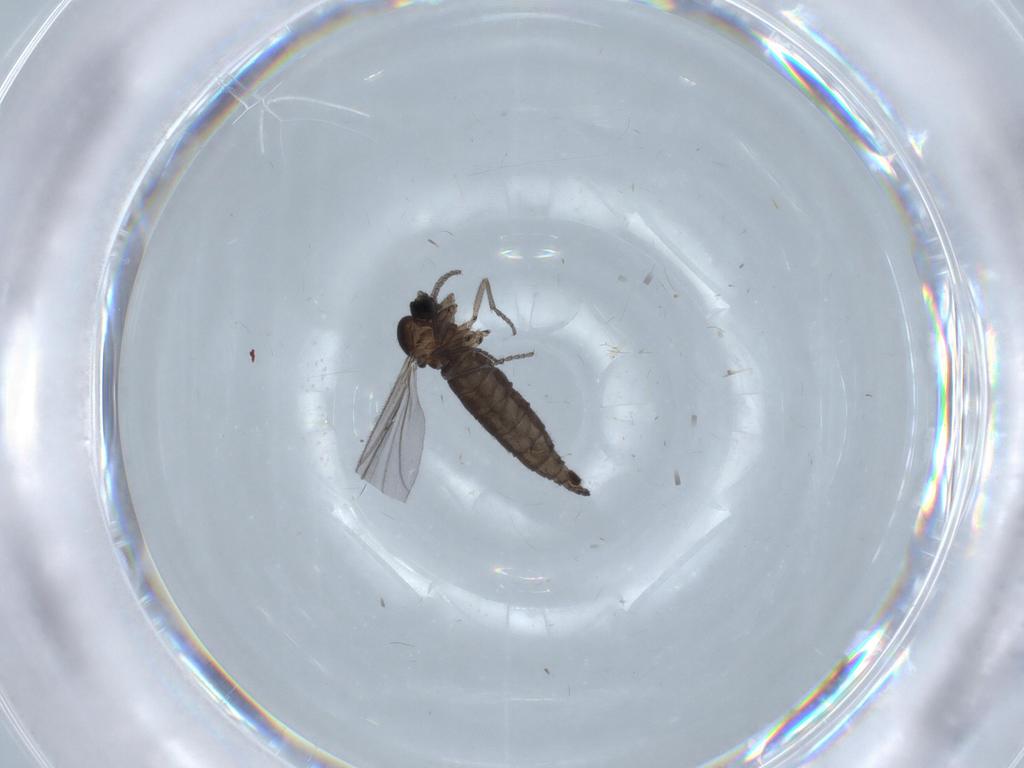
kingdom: Animalia
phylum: Arthropoda
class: Insecta
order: Diptera
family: Sciaridae
